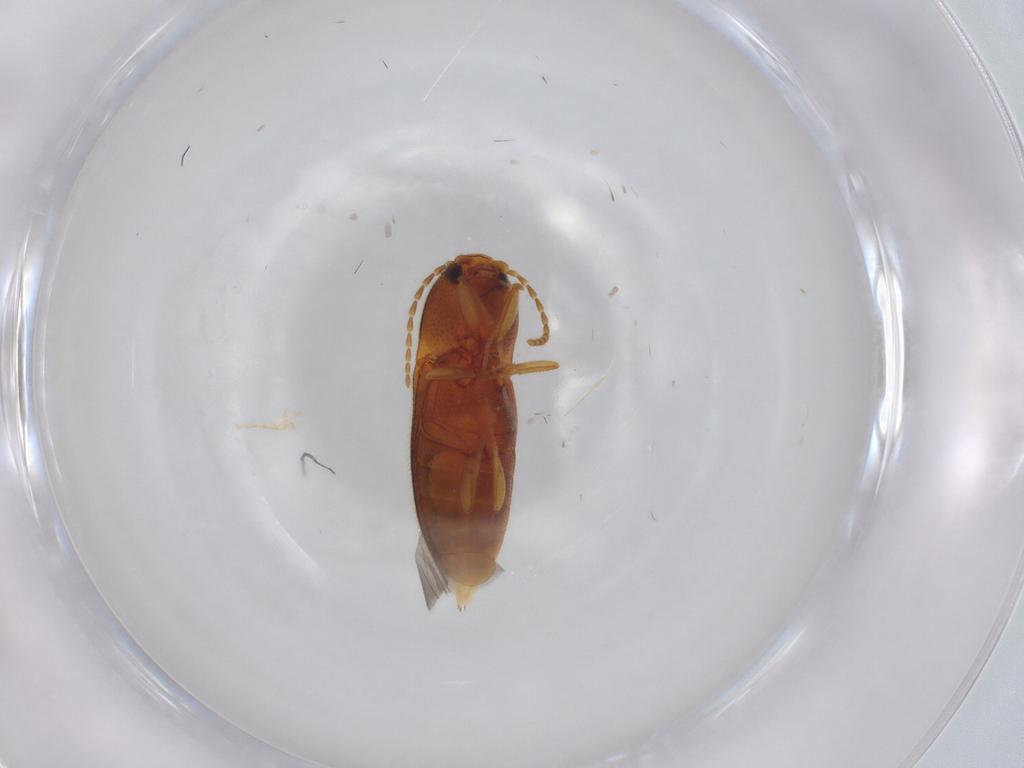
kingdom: Animalia
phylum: Arthropoda
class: Insecta
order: Coleoptera
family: Elateridae
